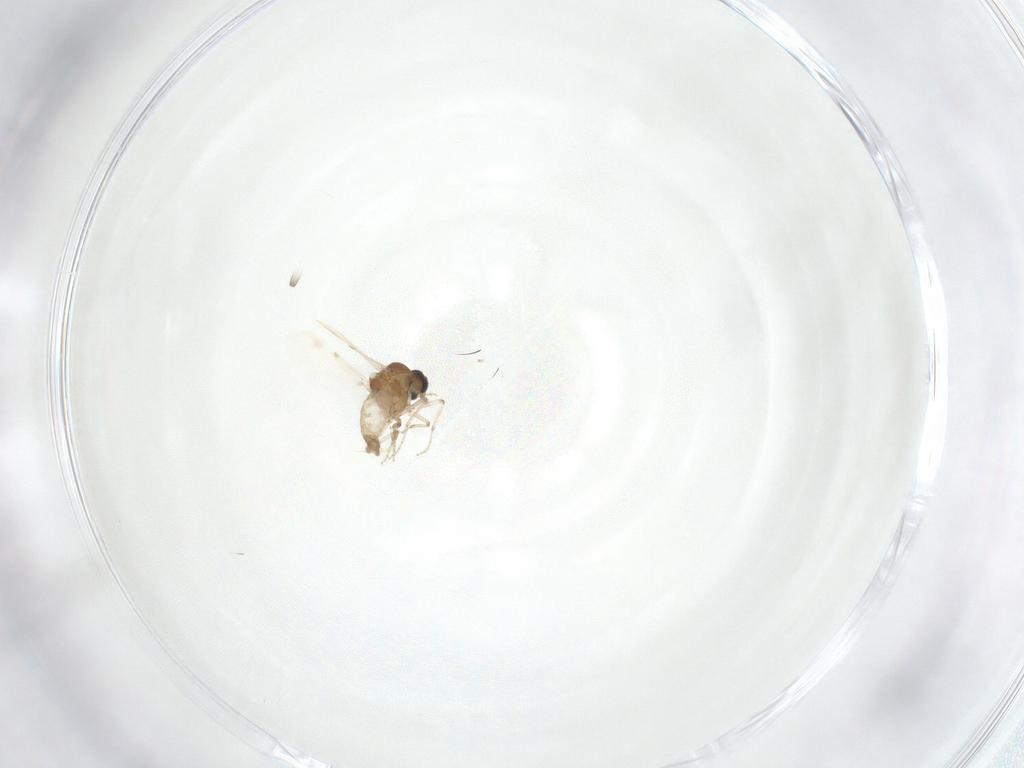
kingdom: Animalia
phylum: Arthropoda
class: Insecta
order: Diptera
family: Ceratopogonidae
